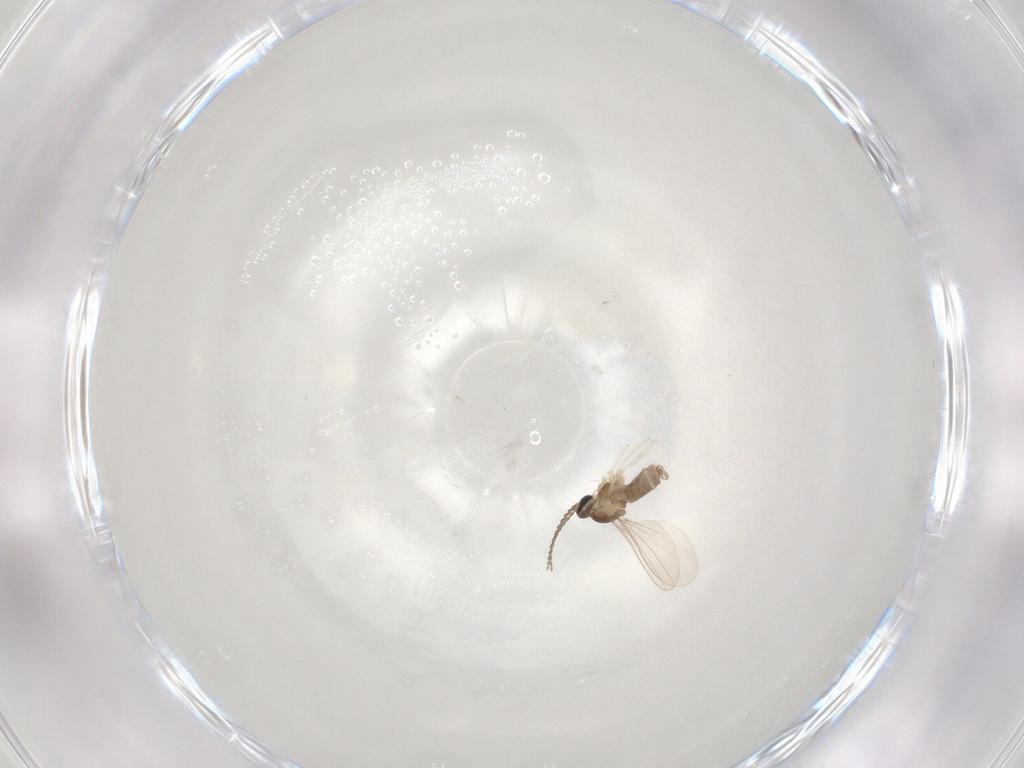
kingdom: Animalia
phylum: Arthropoda
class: Insecta
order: Diptera
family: Cecidomyiidae
